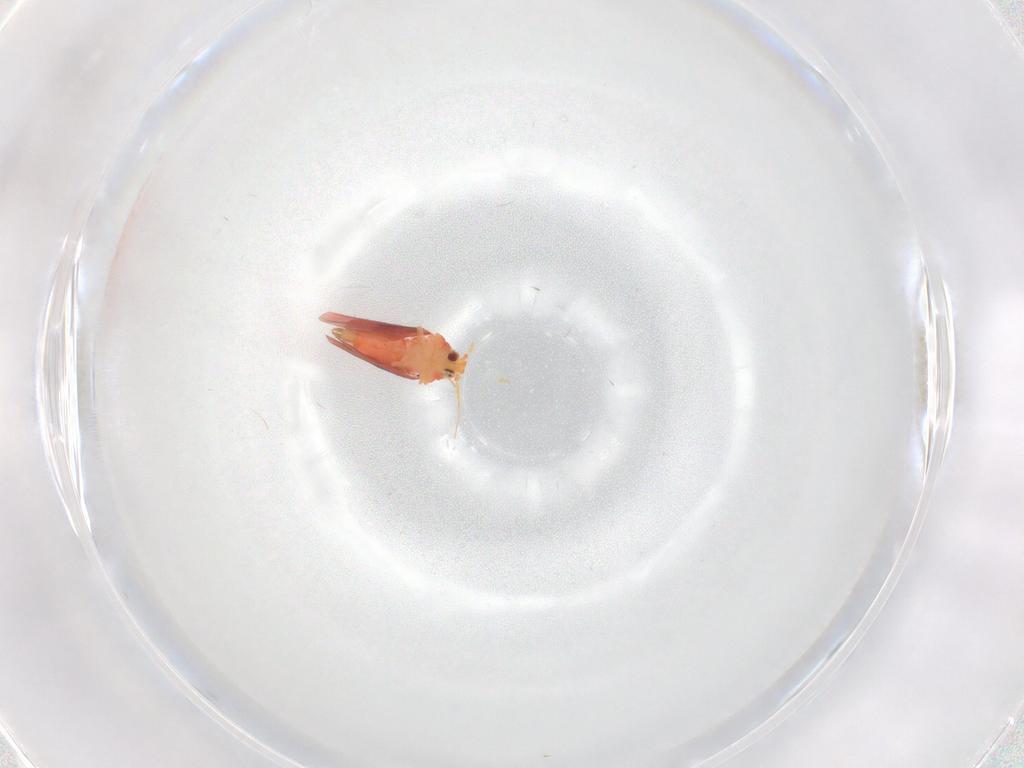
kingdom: Animalia
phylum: Arthropoda
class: Insecta
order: Hemiptera
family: Aleyrodidae
